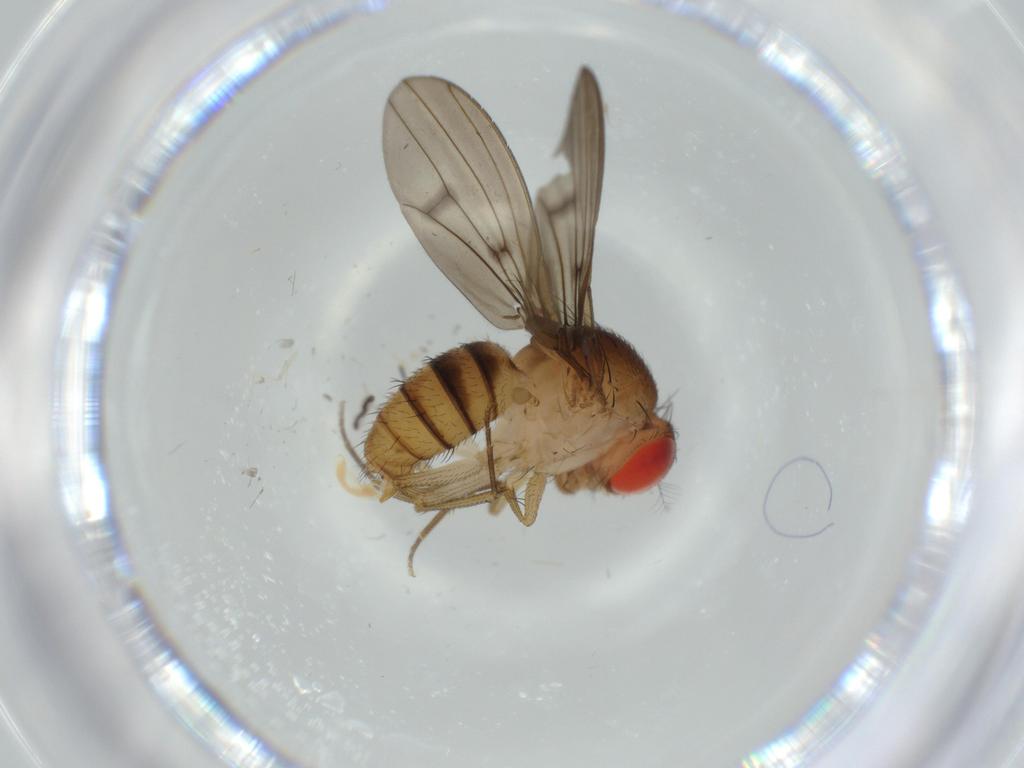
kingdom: Animalia
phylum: Arthropoda
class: Insecta
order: Diptera
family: Drosophilidae
